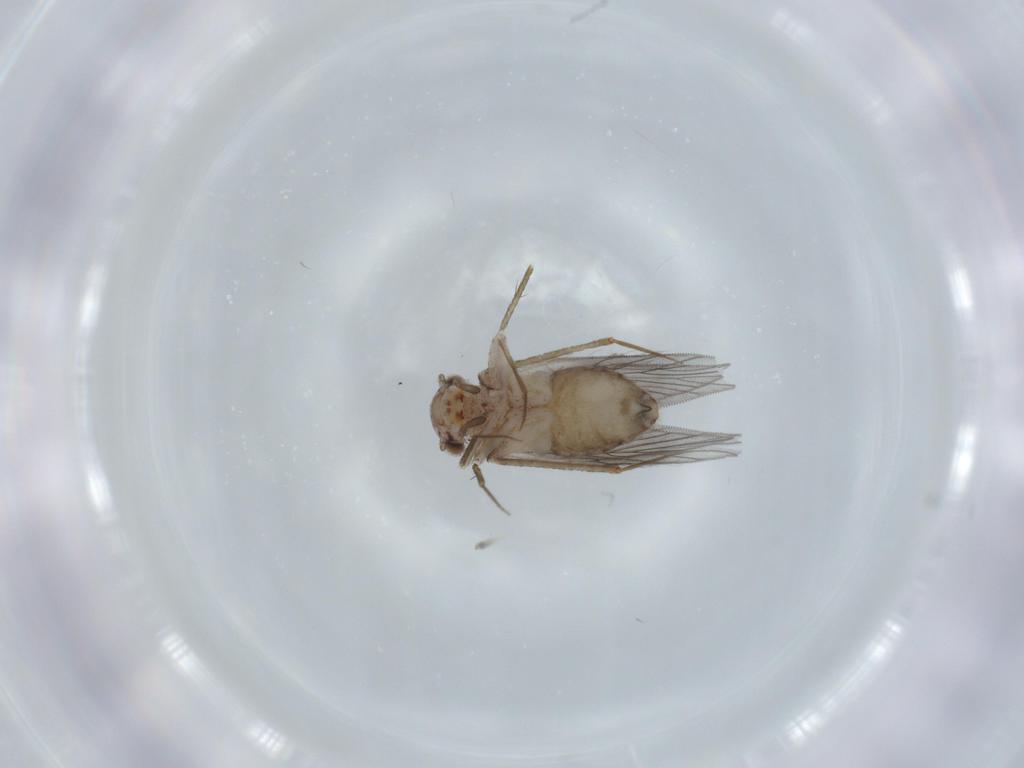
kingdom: Animalia
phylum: Arthropoda
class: Insecta
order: Psocodea
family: Lepidopsocidae
